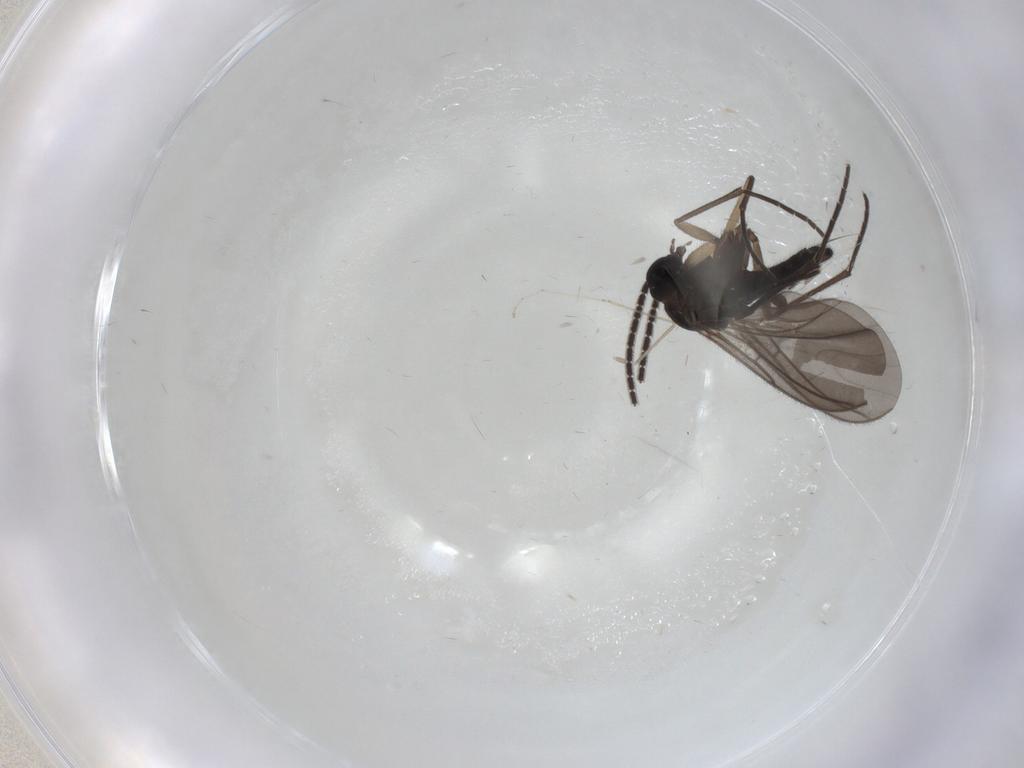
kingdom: Animalia
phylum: Arthropoda
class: Insecta
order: Diptera
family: Sciaridae
